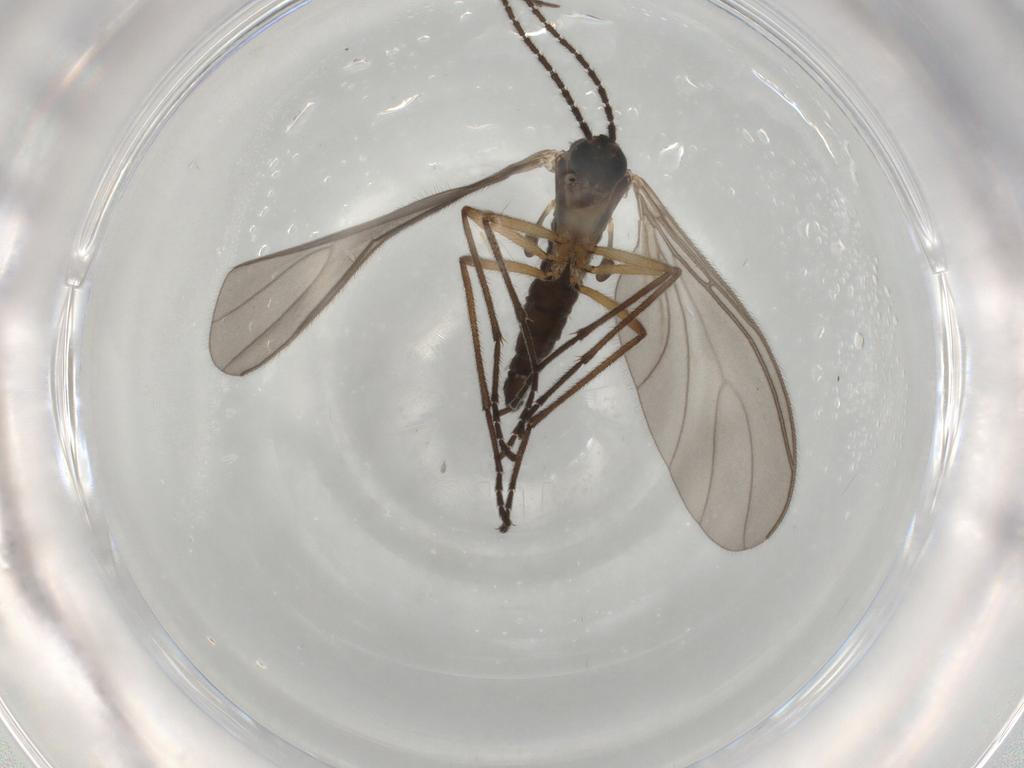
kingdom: Animalia
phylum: Arthropoda
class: Insecta
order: Diptera
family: Sciaridae
